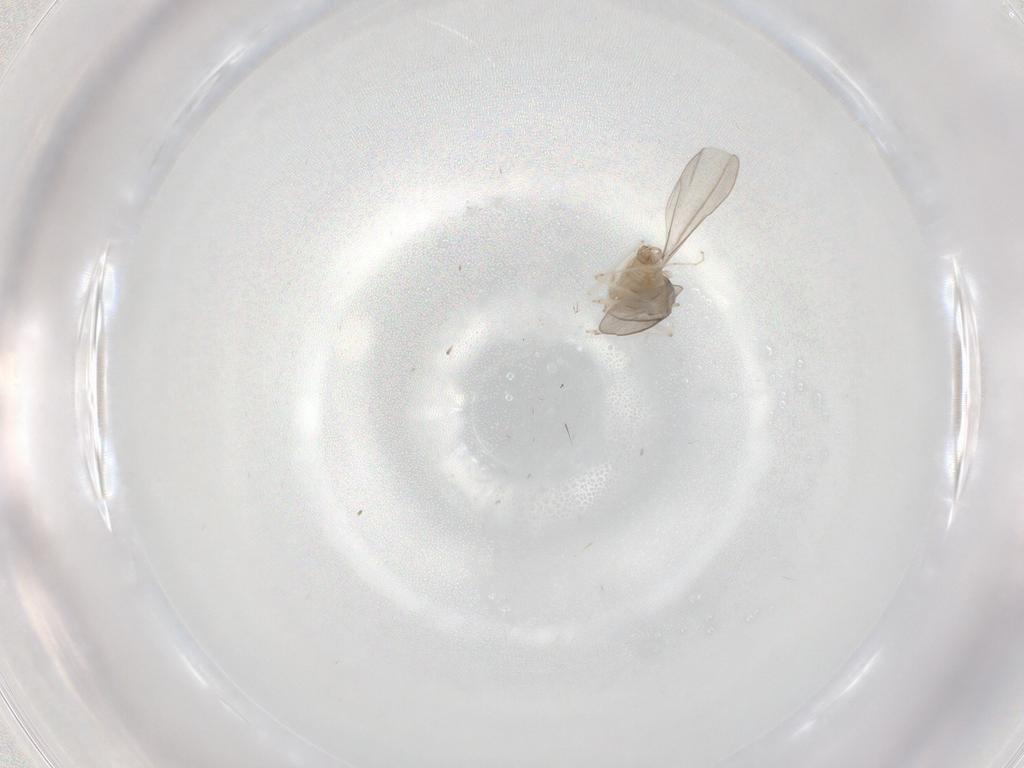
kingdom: Animalia
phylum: Arthropoda
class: Insecta
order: Diptera
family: Cecidomyiidae
